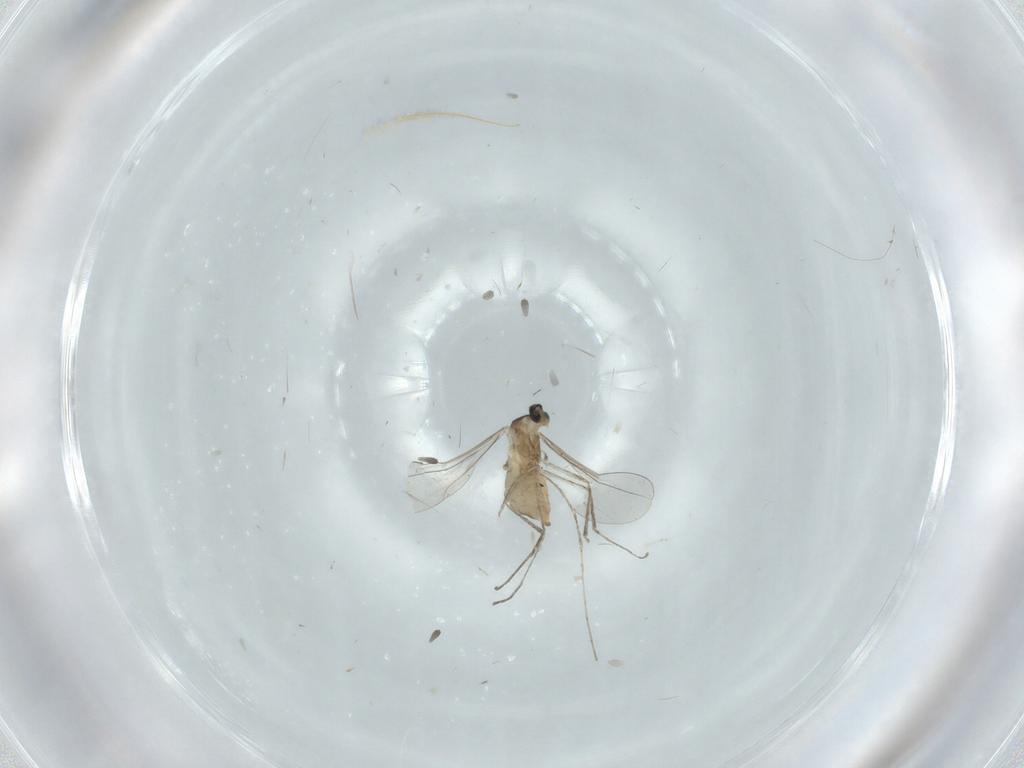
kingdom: Animalia
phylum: Arthropoda
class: Insecta
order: Diptera
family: Cecidomyiidae
